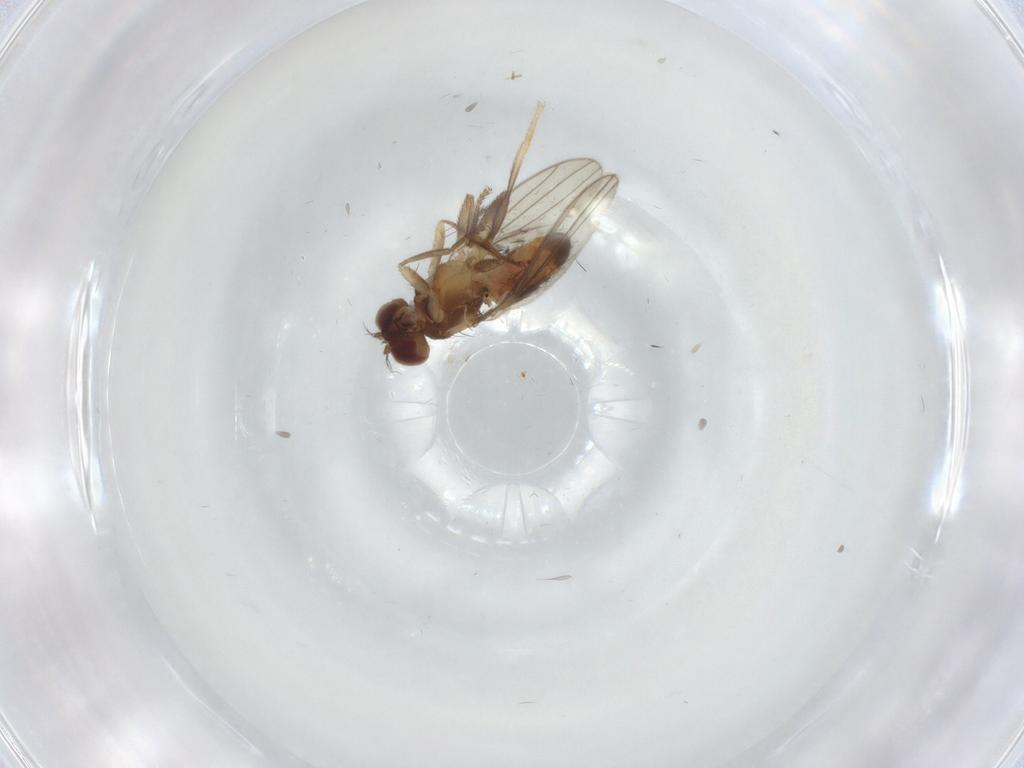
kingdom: Animalia
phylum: Arthropoda
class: Insecta
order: Diptera
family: Periscelididae
